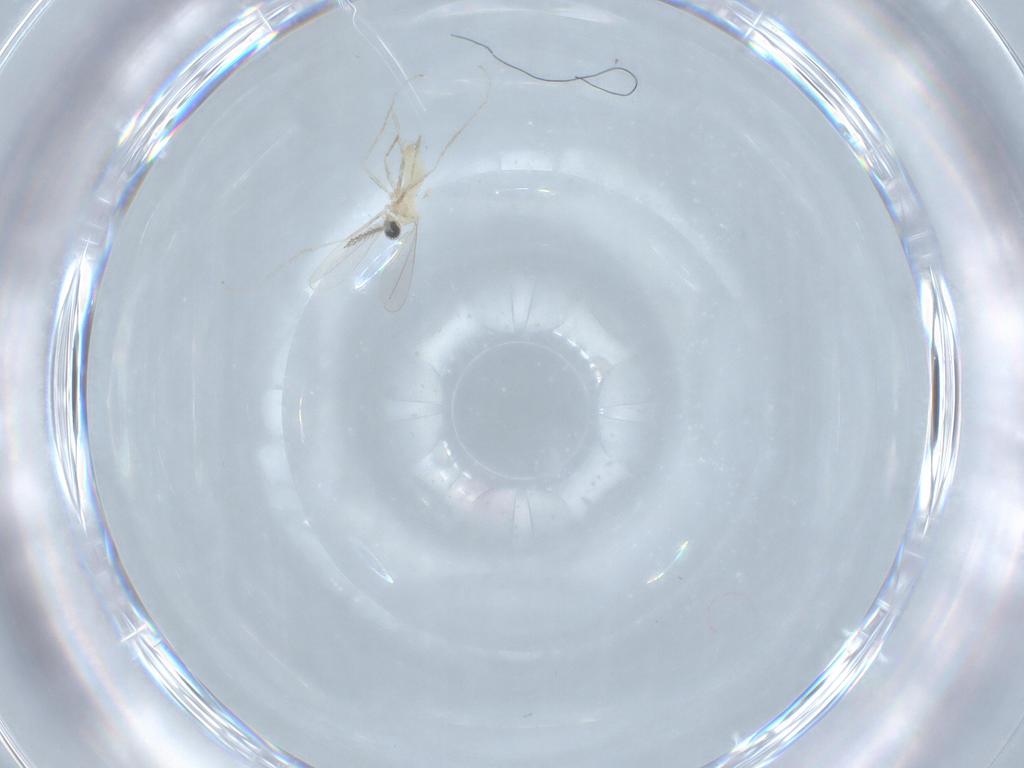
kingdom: Animalia
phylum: Arthropoda
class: Insecta
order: Diptera
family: Cecidomyiidae
